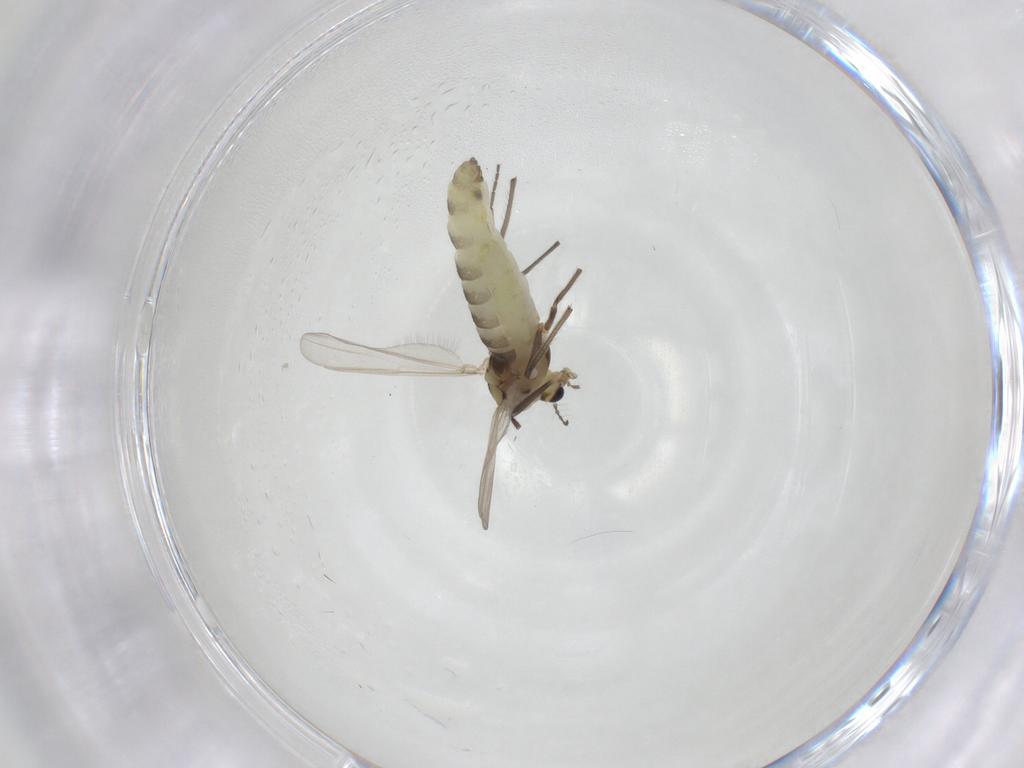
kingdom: Animalia
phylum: Arthropoda
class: Insecta
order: Diptera
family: Chironomidae
